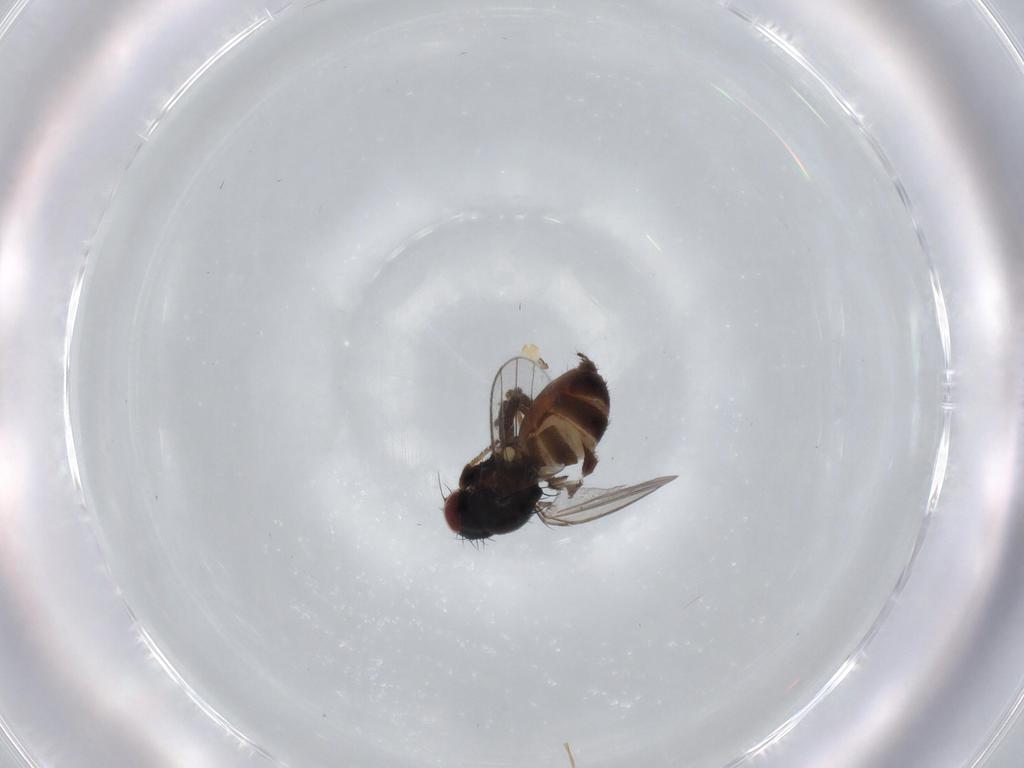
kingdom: Animalia
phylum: Arthropoda
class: Insecta
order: Diptera
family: Milichiidae
